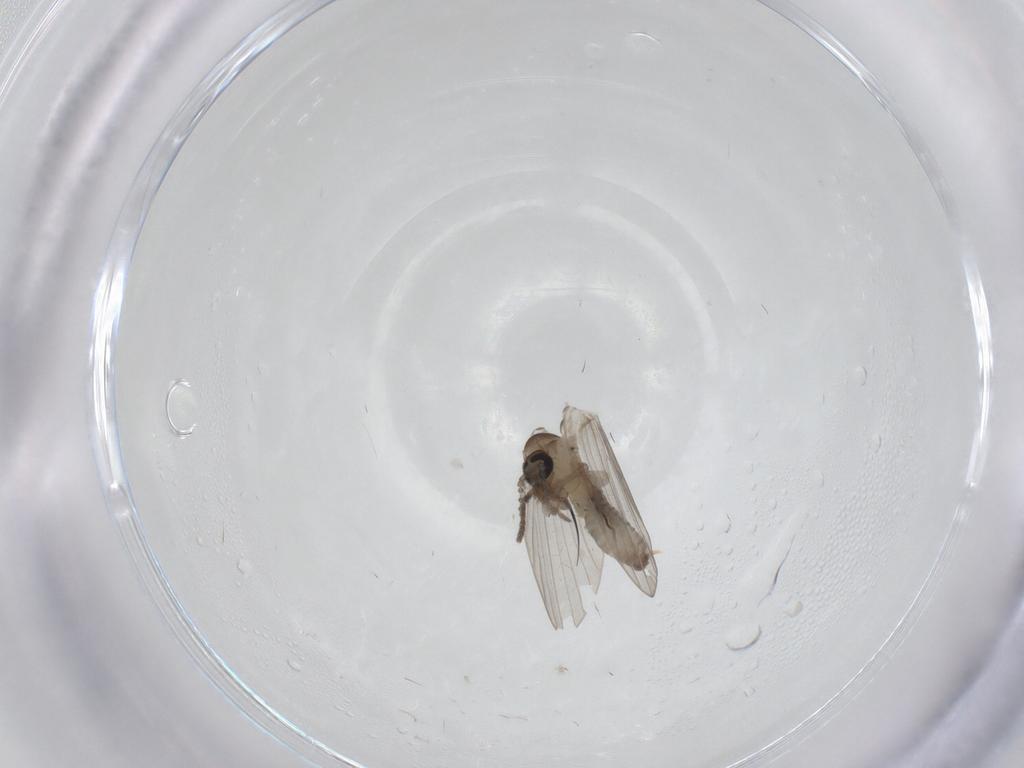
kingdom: Animalia
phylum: Arthropoda
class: Insecta
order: Diptera
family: Psychodidae
